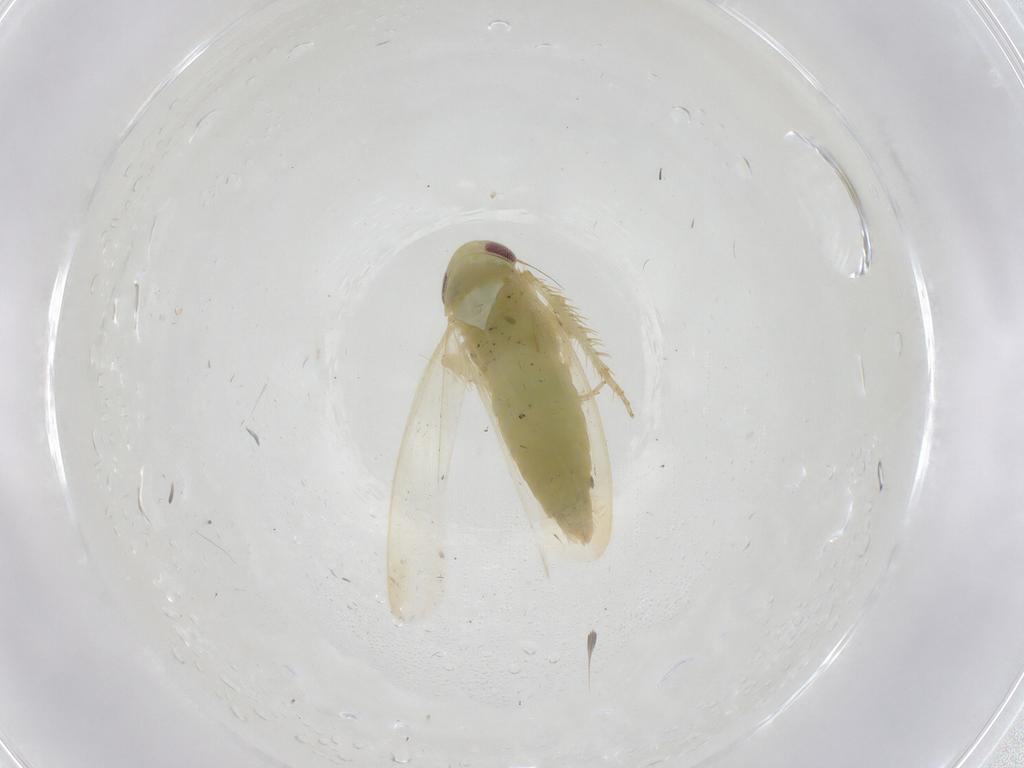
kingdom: Animalia
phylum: Arthropoda
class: Insecta
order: Hemiptera
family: Cicadellidae
